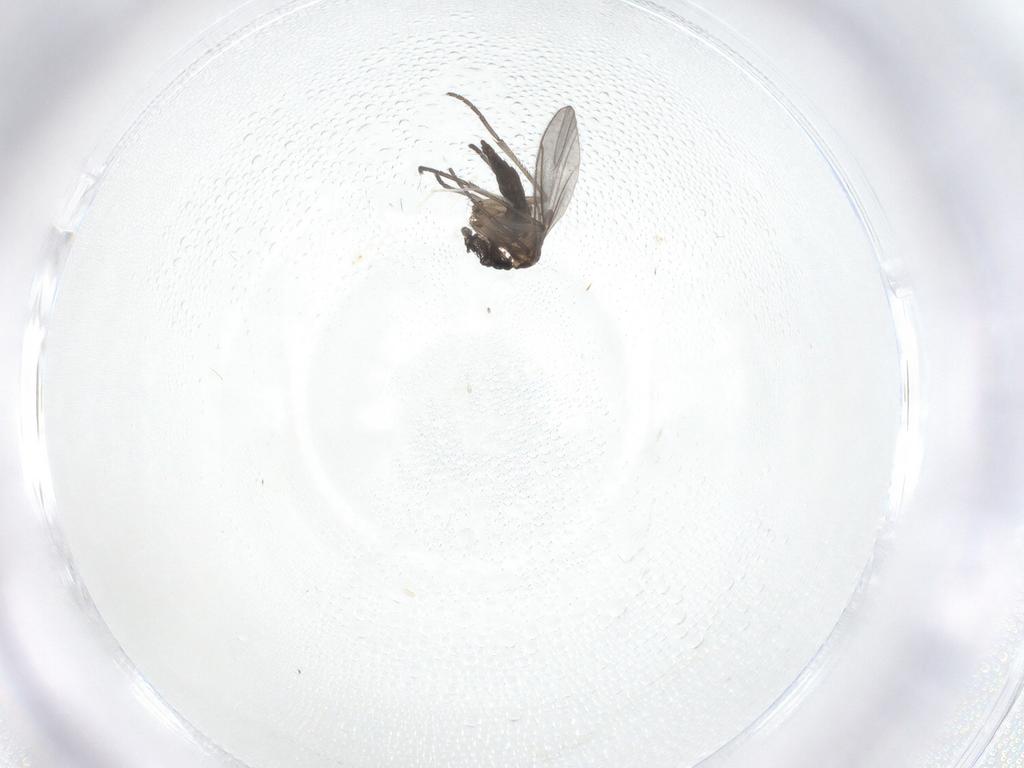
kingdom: Animalia
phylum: Arthropoda
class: Insecta
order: Diptera
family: Sciaridae
